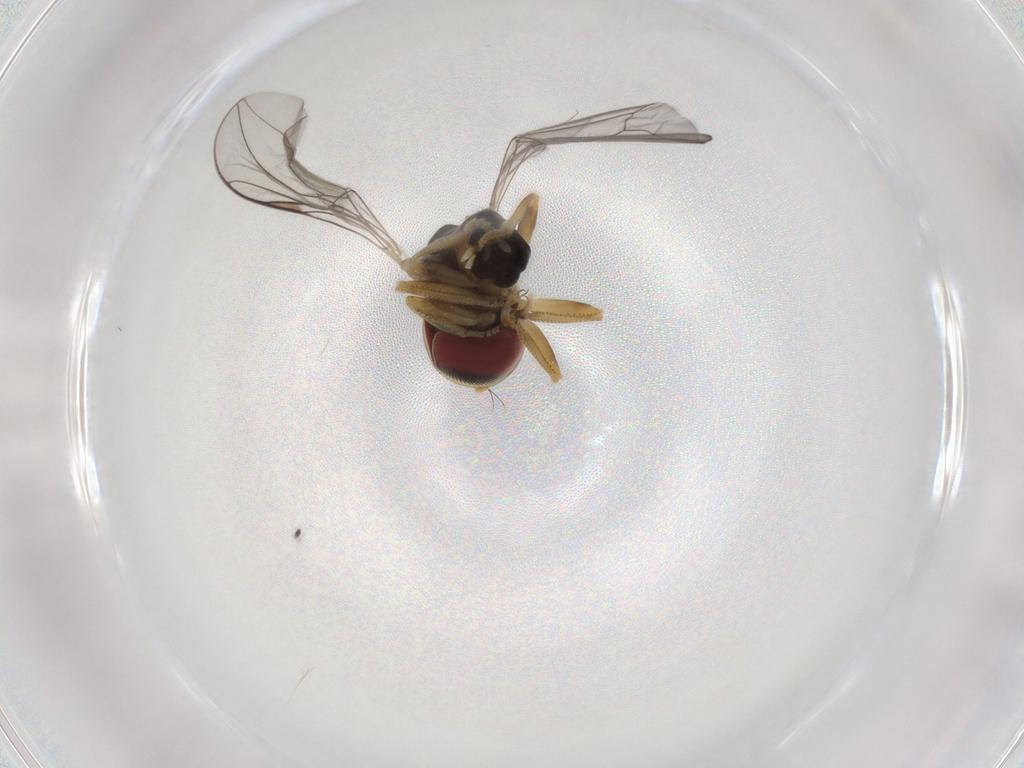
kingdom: Animalia
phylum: Arthropoda
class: Insecta
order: Diptera
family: Pipunculidae
